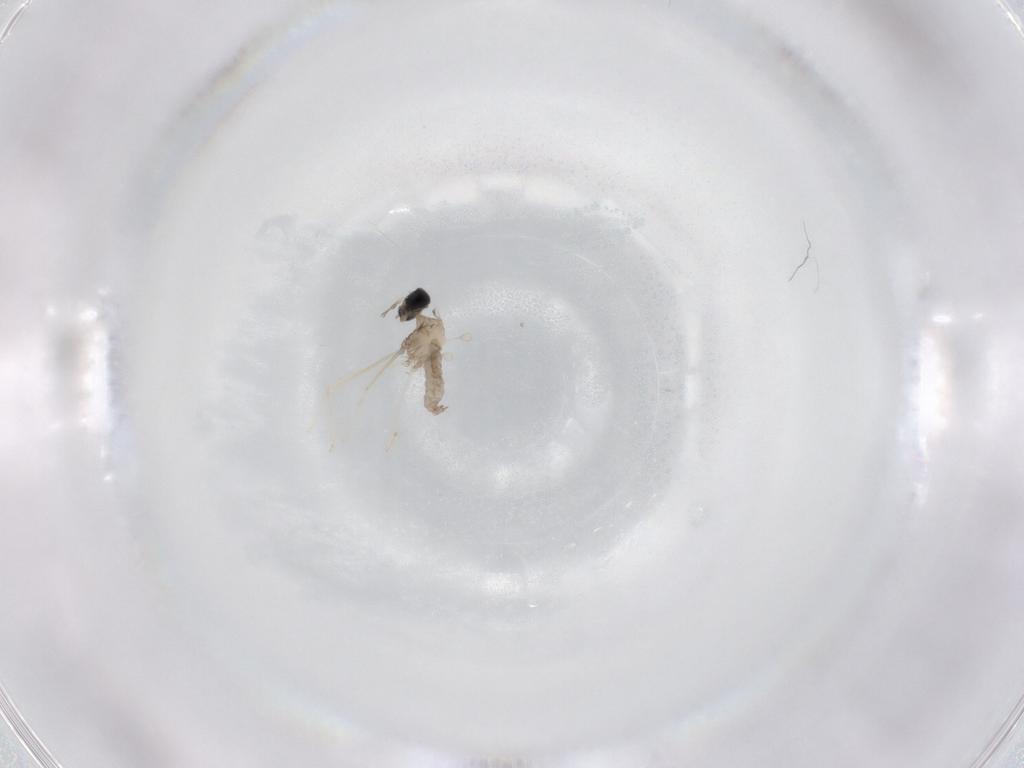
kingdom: Animalia
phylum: Arthropoda
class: Insecta
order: Diptera
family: Cecidomyiidae
